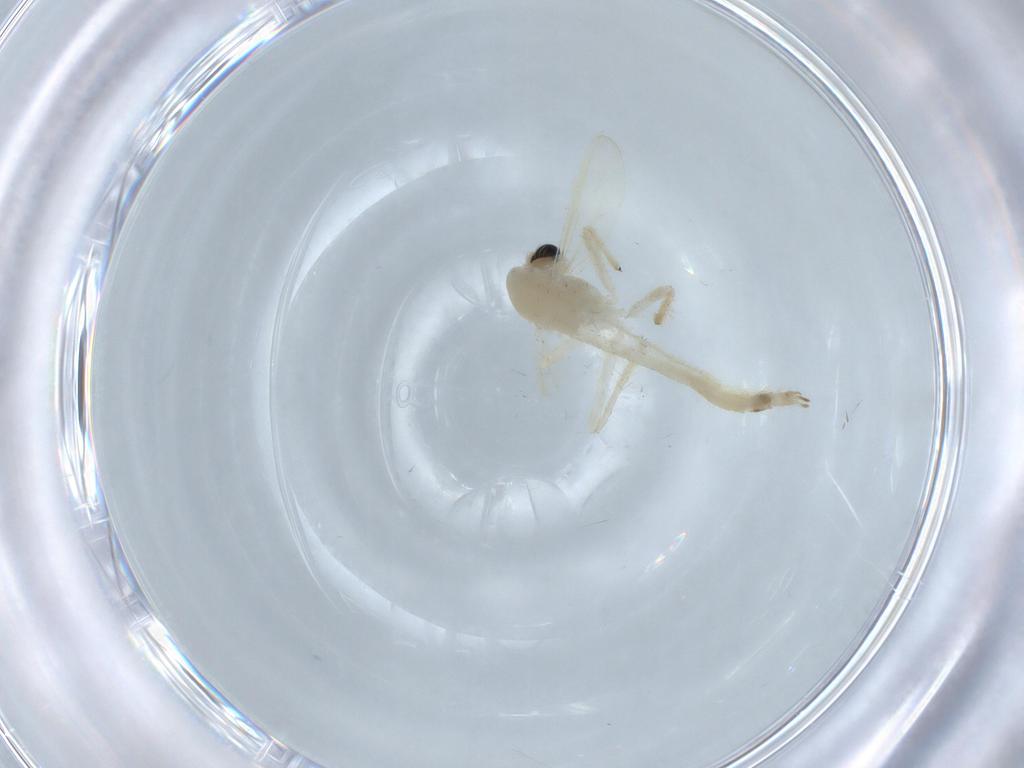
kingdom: Animalia
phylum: Arthropoda
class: Insecta
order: Diptera
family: Chironomidae
